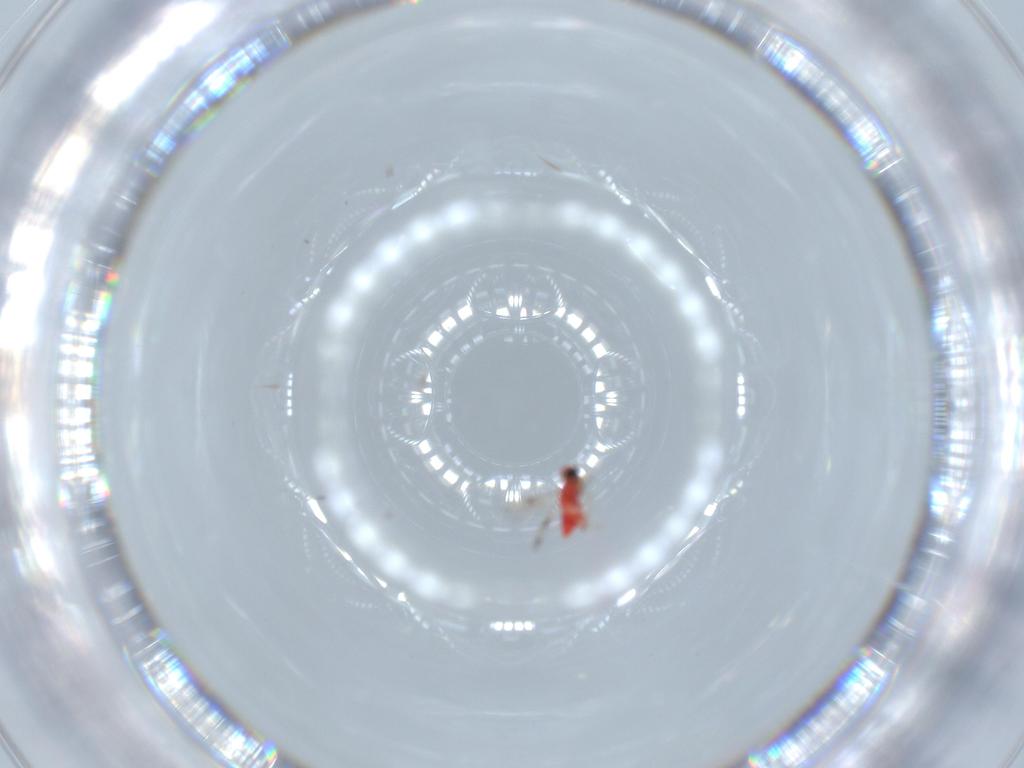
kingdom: Animalia
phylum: Arthropoda
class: Insecta
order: Hymenoptera
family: Trichogrammatidae
